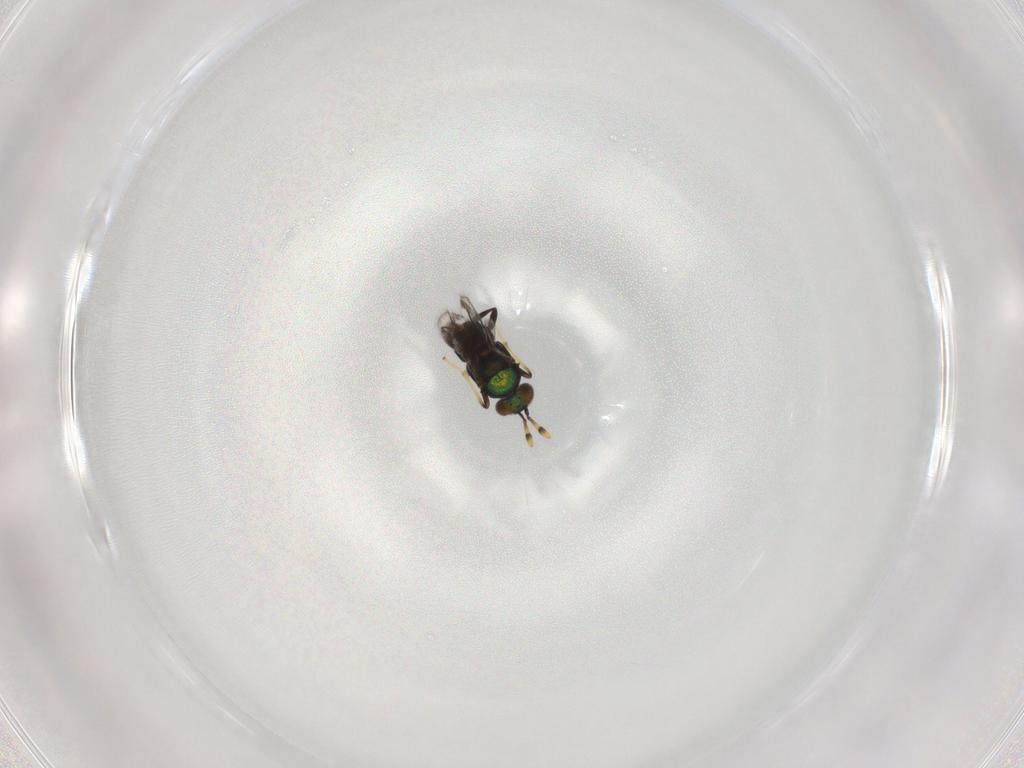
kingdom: Animalia
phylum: Arthropoda
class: Insecta
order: Hymenoptera
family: Encyrtidae
